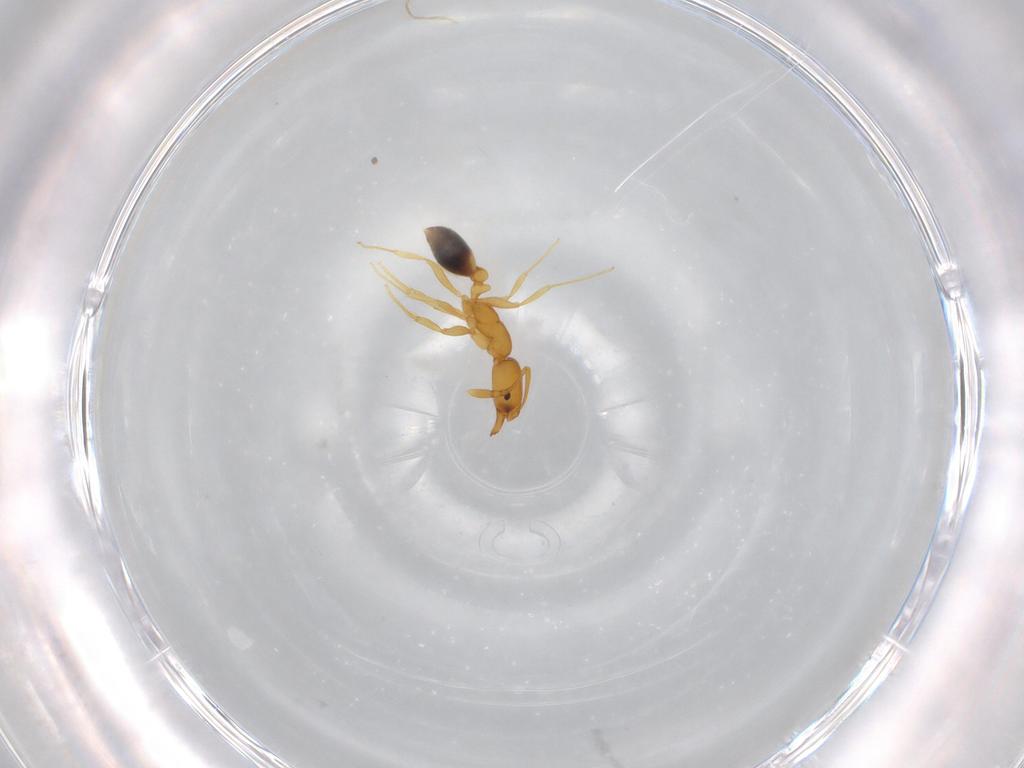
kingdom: Animalia
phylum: Arthropoda
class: Insecta
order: Hymenoptera
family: Formicidae
